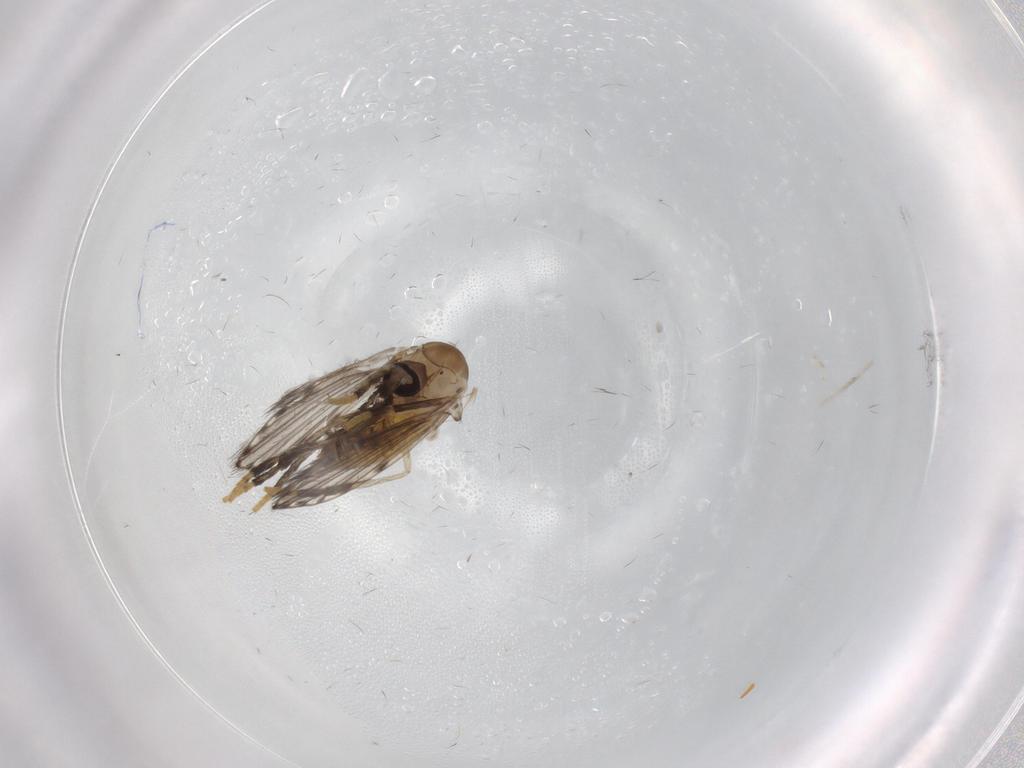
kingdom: Animalia
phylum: Arthropoda
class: Insecta
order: Diptera
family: Psychodidae
